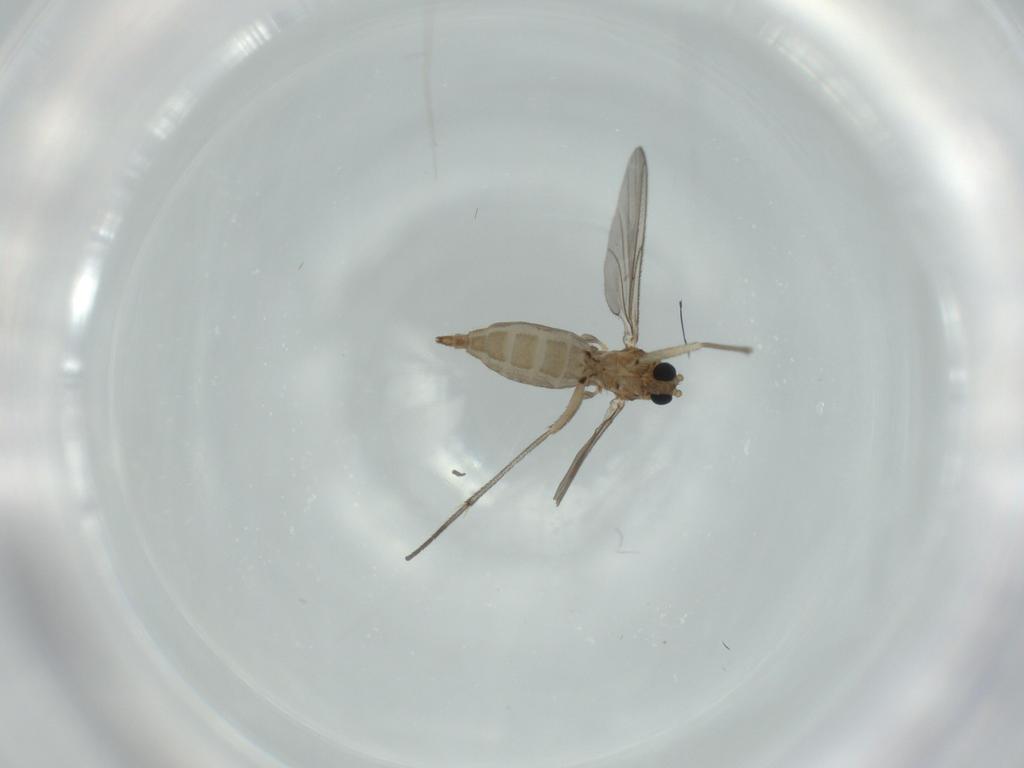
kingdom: Animalia
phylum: Arthropoda
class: Insecta
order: Diptera
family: Sciaridae
